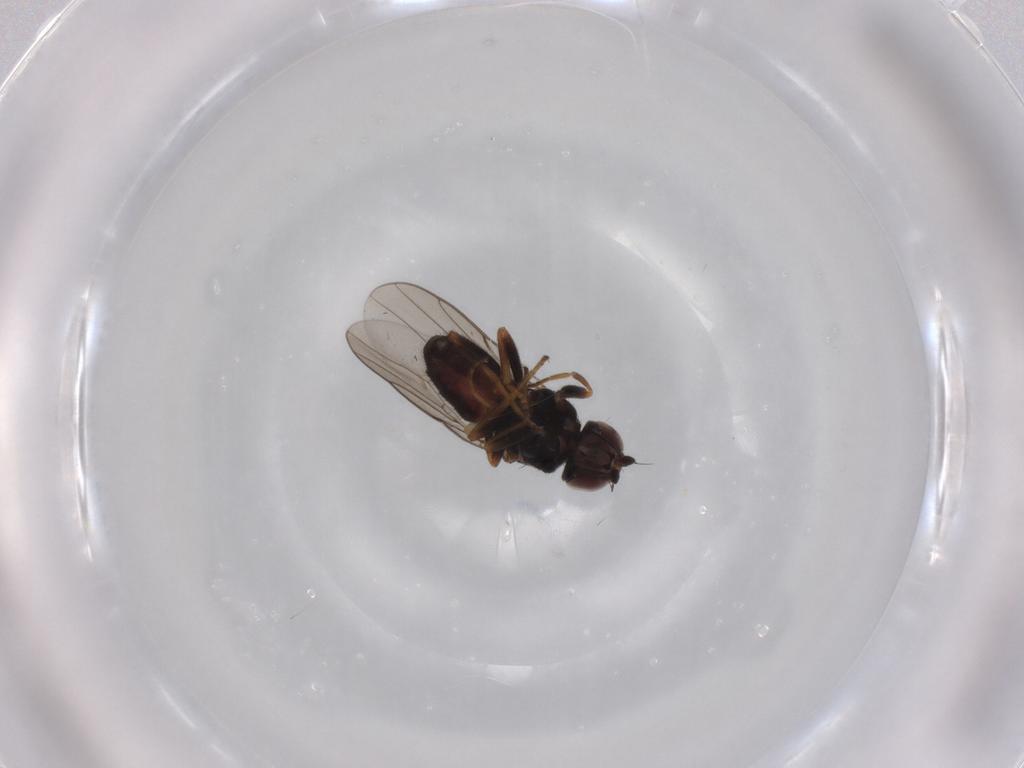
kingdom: Animalia
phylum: Arthropoda
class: Insecta
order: Diptera
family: Chloropidae
